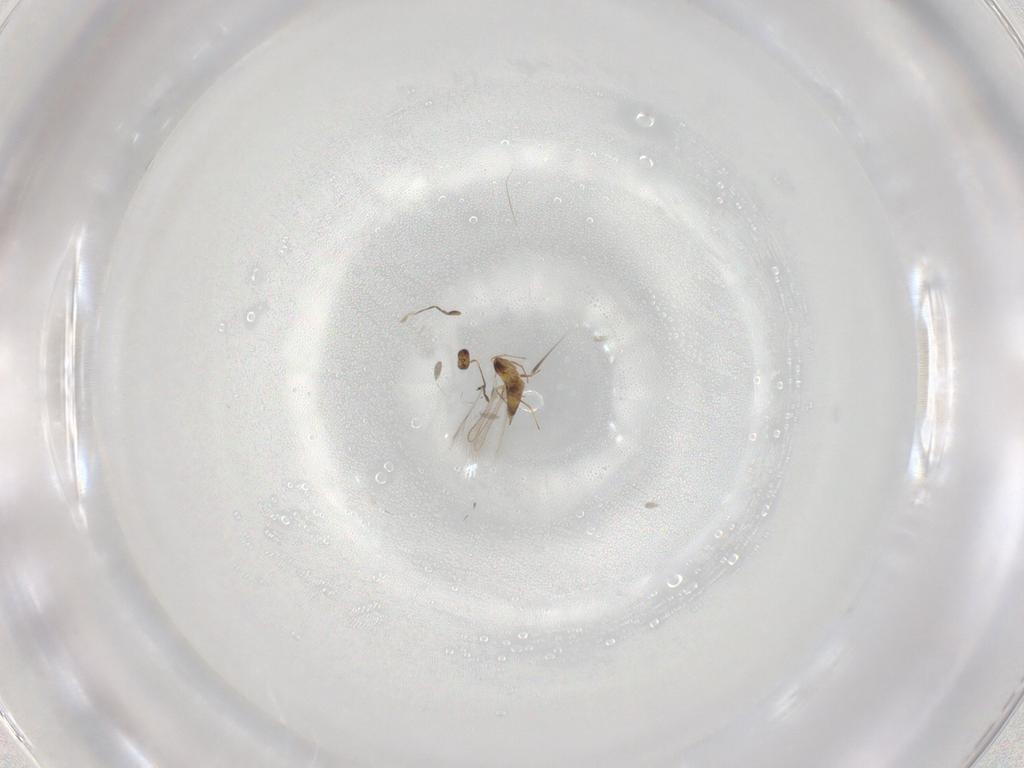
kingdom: Animalia
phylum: Arthropoda
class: Insecta
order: Hymenoptera
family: Mymaridae
